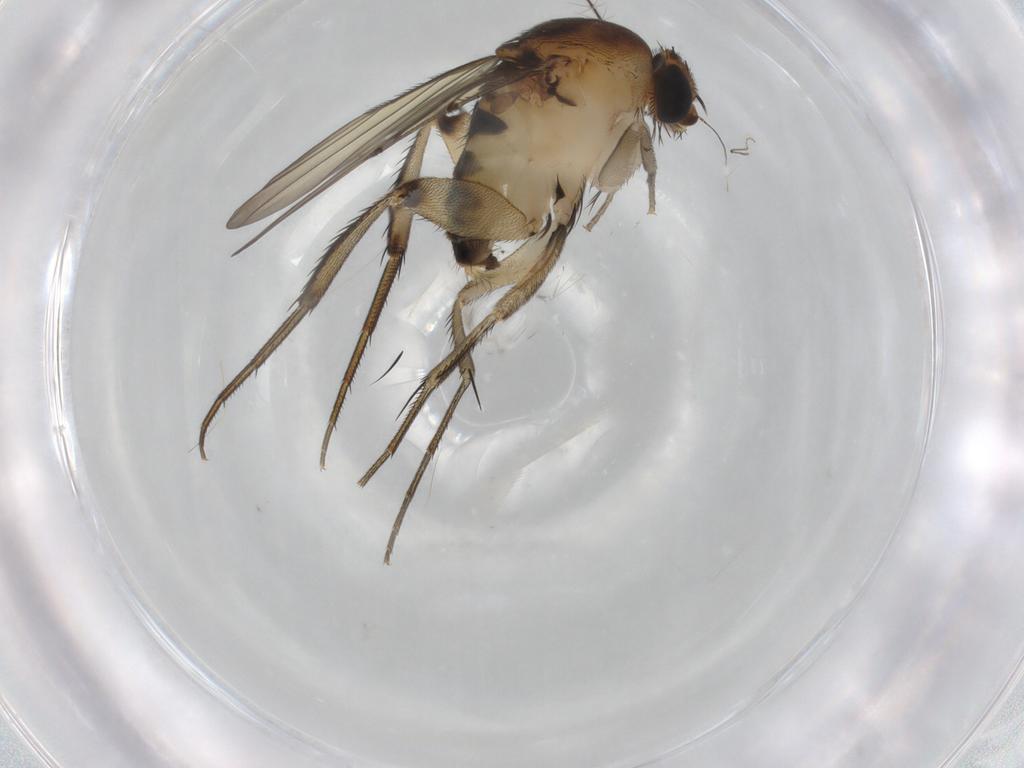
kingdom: Animalia
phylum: Arthropoda
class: Insecta
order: Diptera
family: Phoridae
